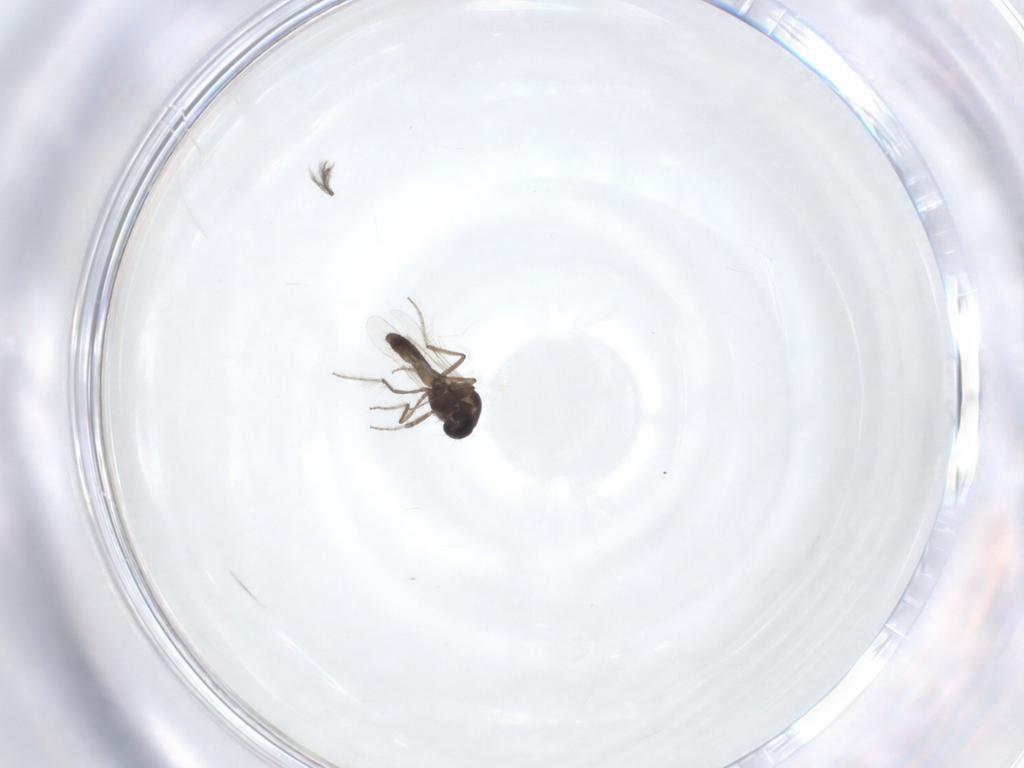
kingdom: Animalia
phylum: Arthropoda
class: Insecta
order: Diptera
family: Ceratopogonidae
